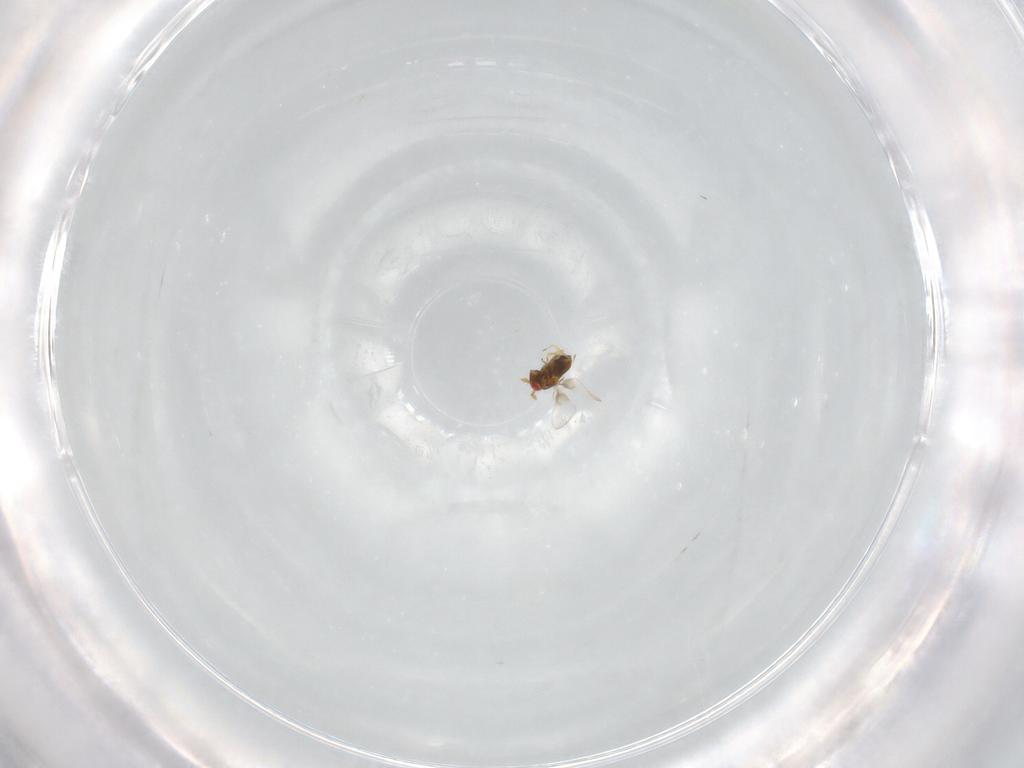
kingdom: Animalia
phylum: Arthropoda
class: Insecta
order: Hymenoptera
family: Trichogrammatidae
